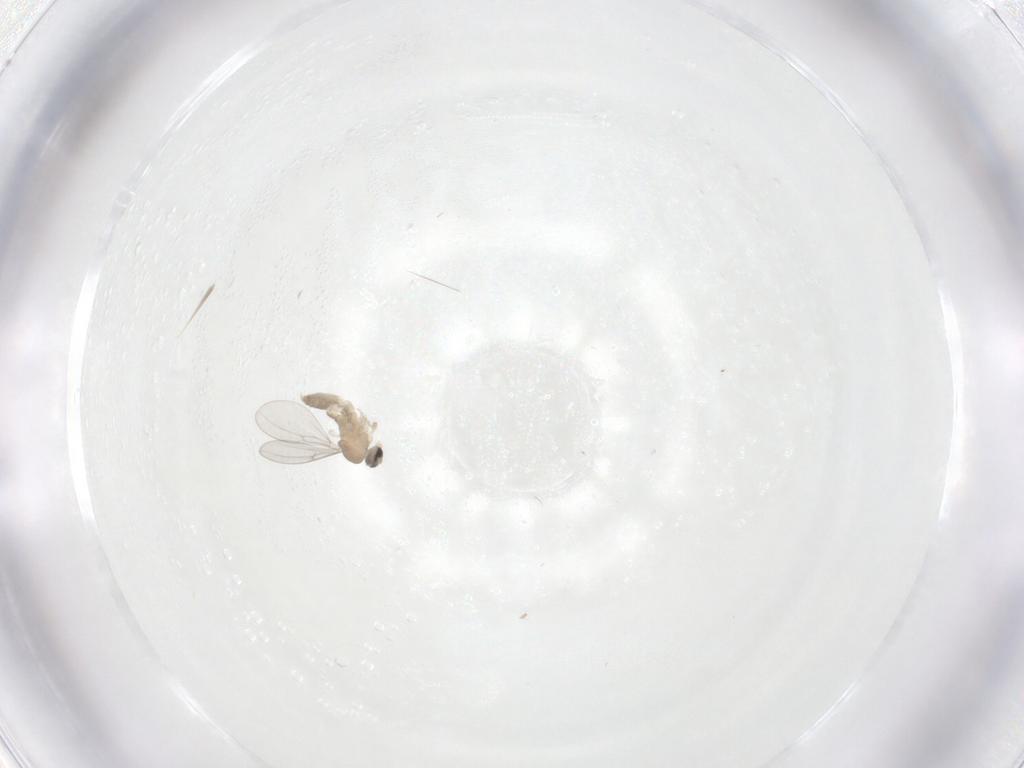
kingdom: Animalia
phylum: Arthropoda
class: Insecta
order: Diptera
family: Cecidomyiidae
